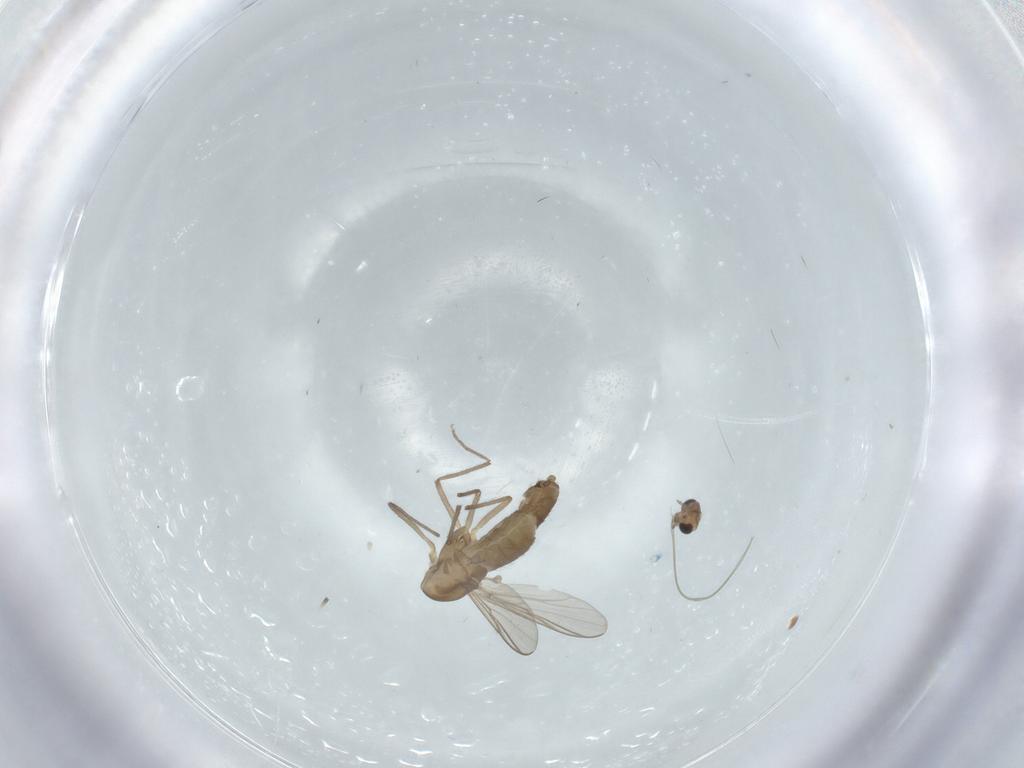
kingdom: Animalia
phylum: Arthropoda
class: Insecta
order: Diptera
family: Chironomidae
